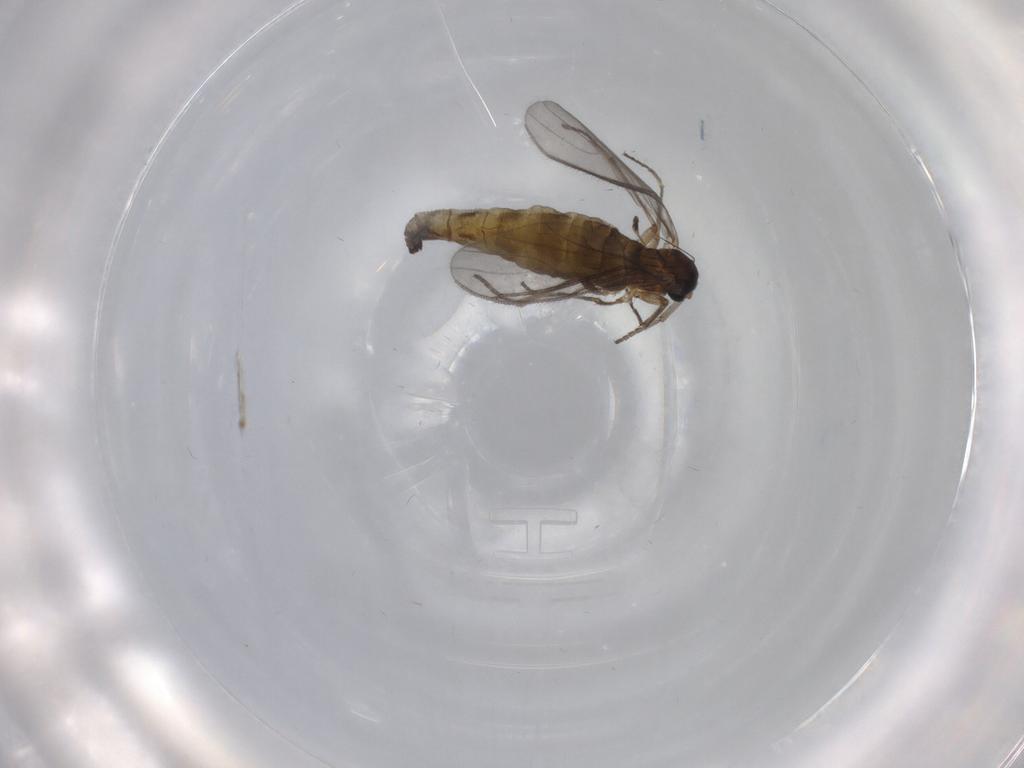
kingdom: Animalia
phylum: Arthropoda
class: Insecta
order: Diptera
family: Sciaridae
